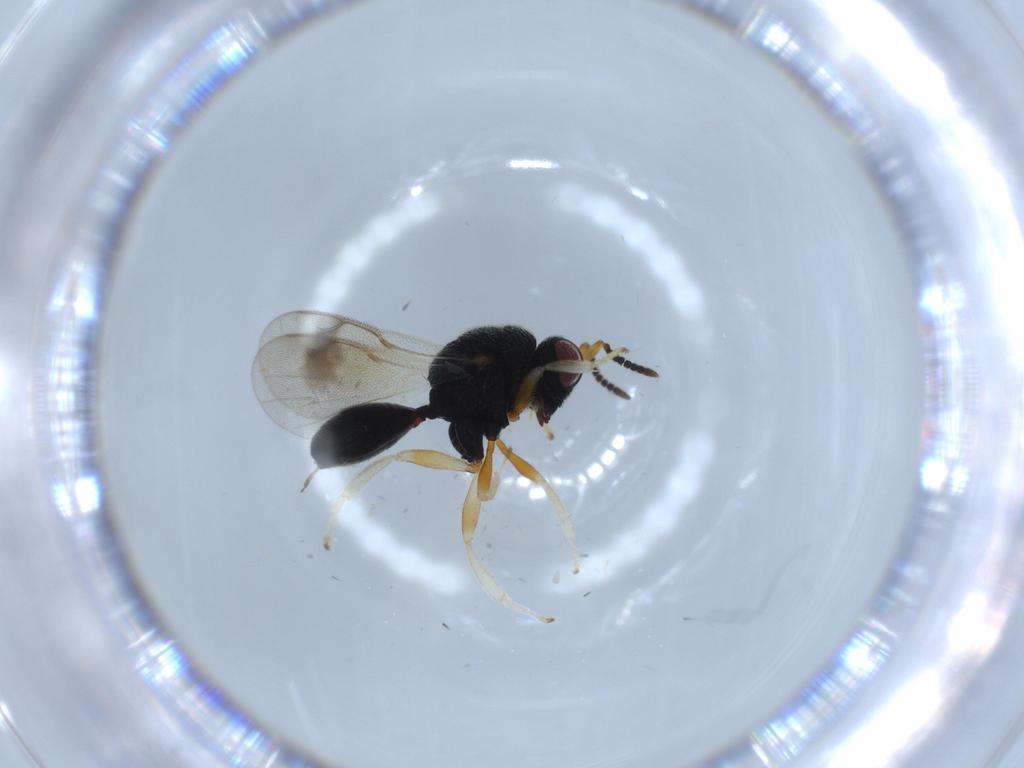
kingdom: Animalia
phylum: Arthropoda
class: Insecta
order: Hymenoptera
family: Eurytomidae
